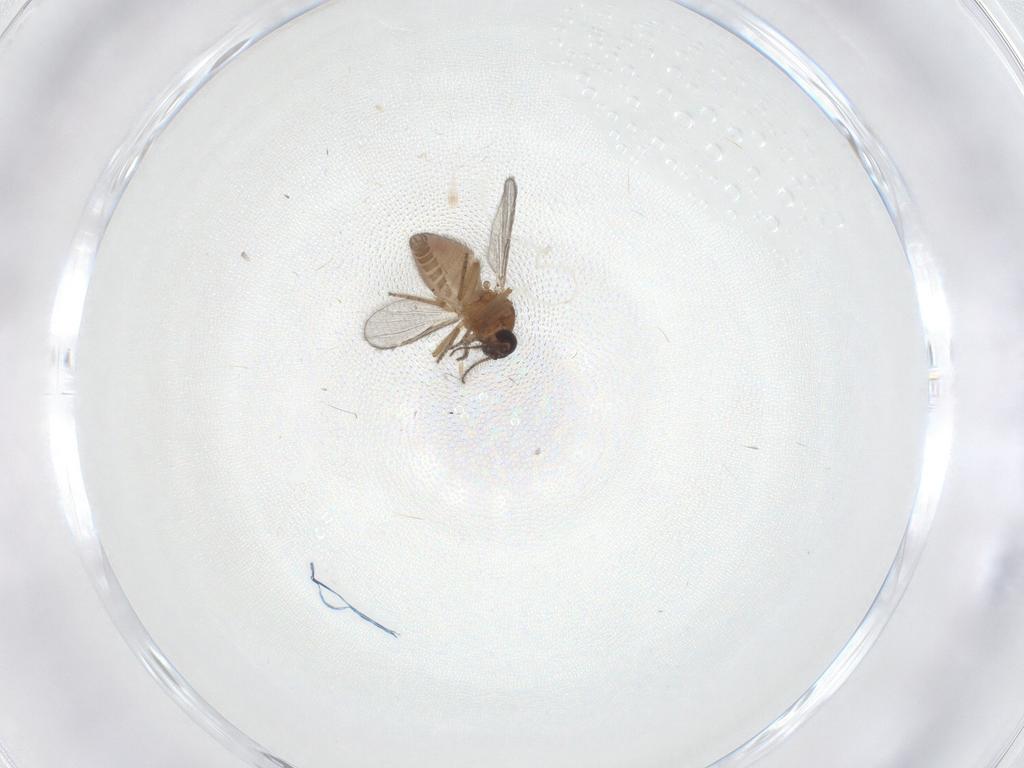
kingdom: Animalia
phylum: Arthropoda
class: Insecta
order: Diptera
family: Ceratopogonidae
